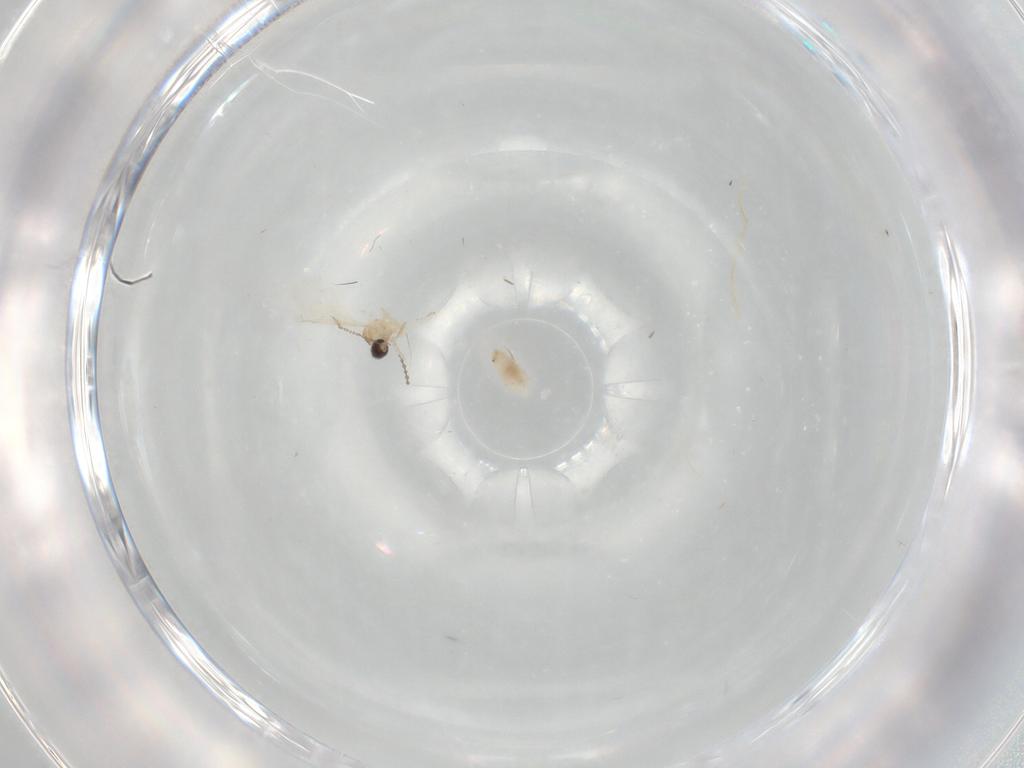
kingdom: Animalia
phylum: Arthropoda
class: Insecta
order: Diptera
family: Cecidomyiidae
